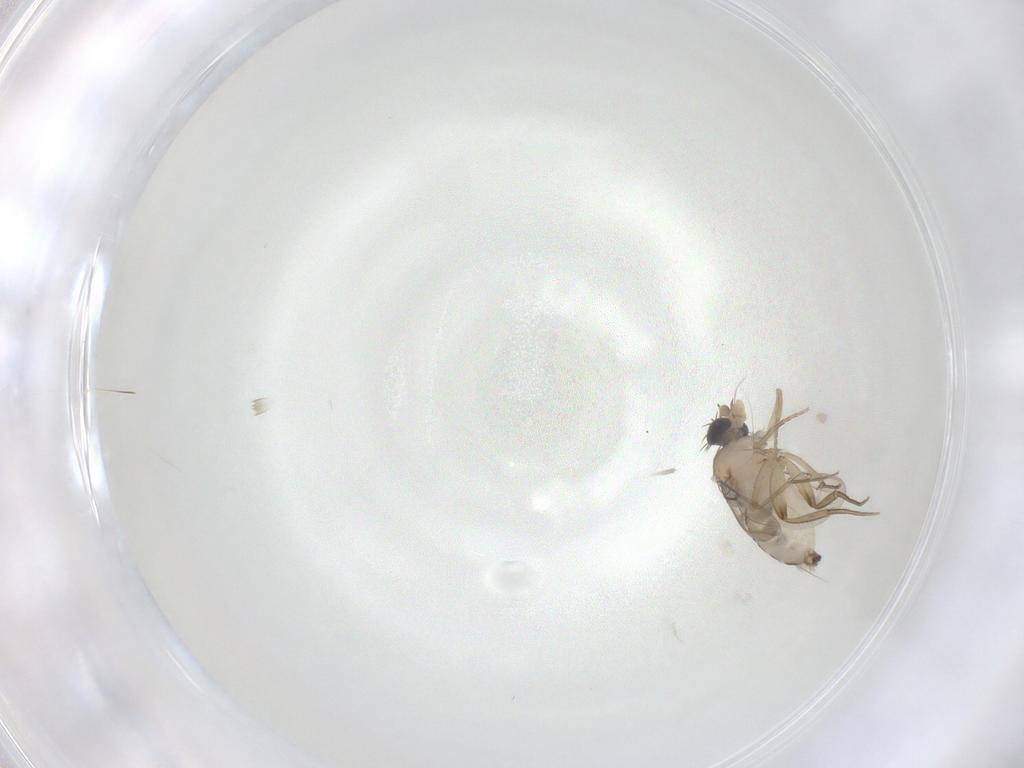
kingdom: Animalia
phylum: Arthropoda
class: Insecta
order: Diptera
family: Phoridae
